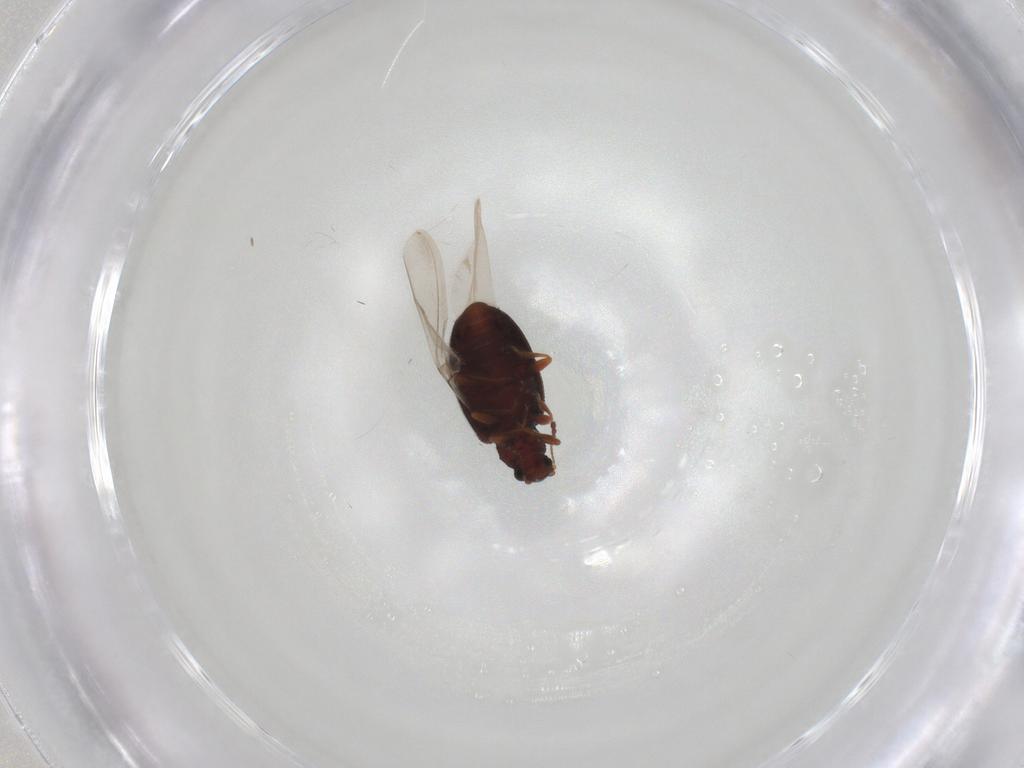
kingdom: Animalia
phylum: Arthropoda
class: Insecta
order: Coleoptera
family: Latridiidae
